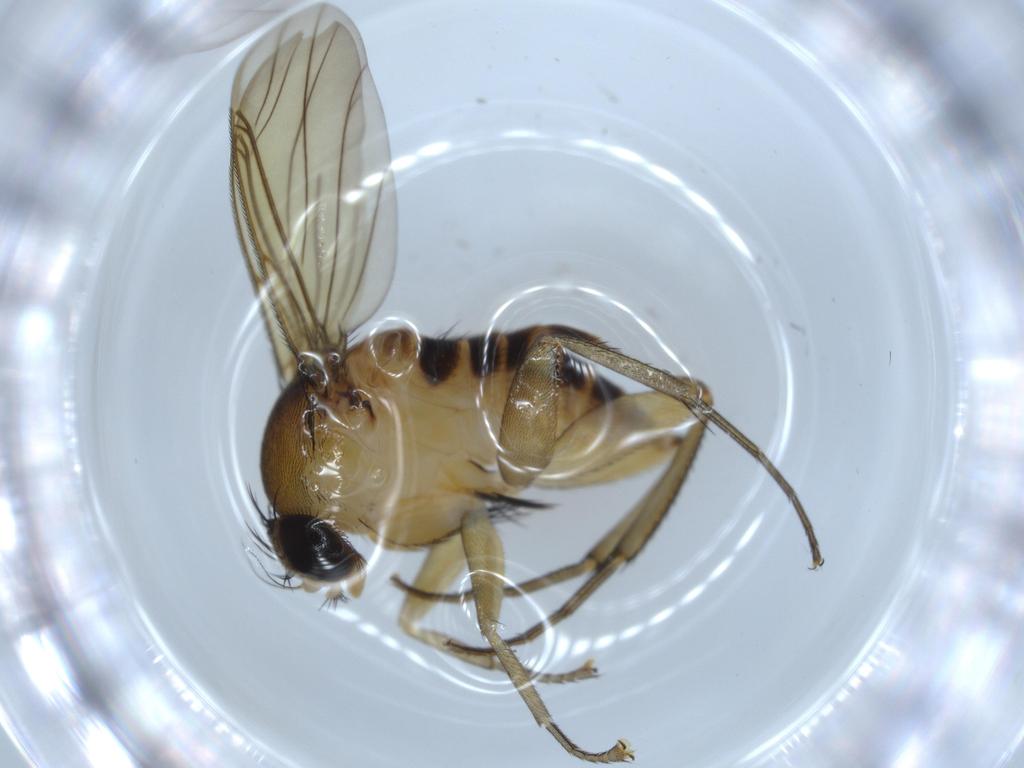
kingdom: Animalia
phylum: Arthropoda
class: Insecta
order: Diptera
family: Phoridae
